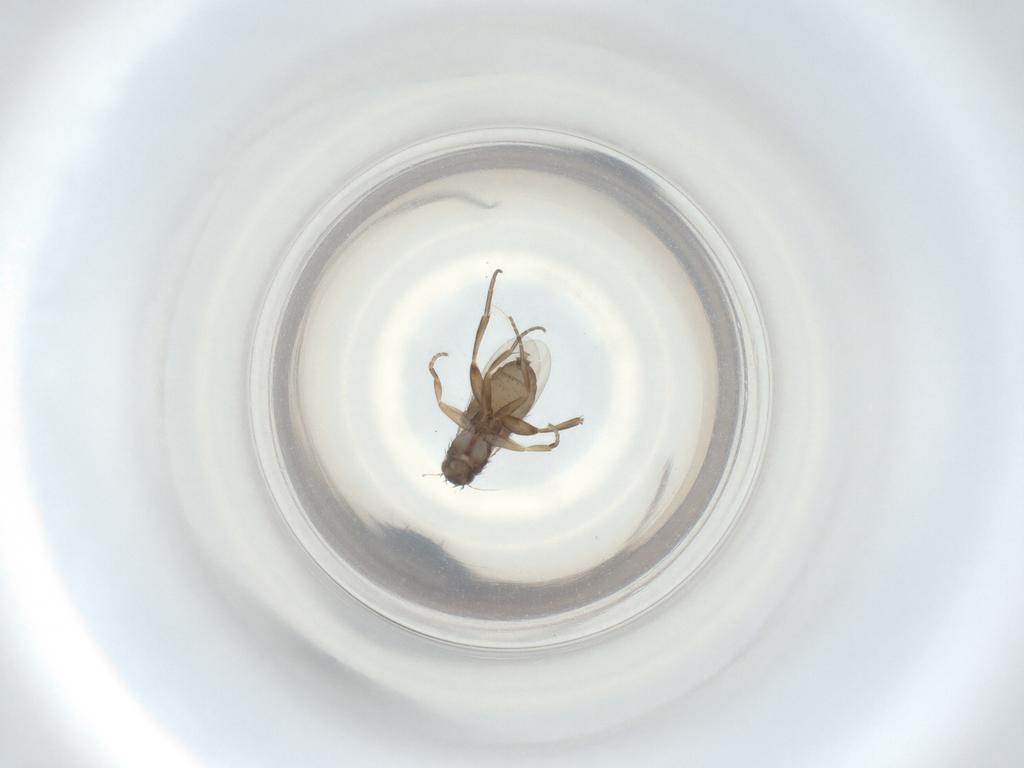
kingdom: Animalia
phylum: Arthropoda
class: Insecta
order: Diptera
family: Phoridae
